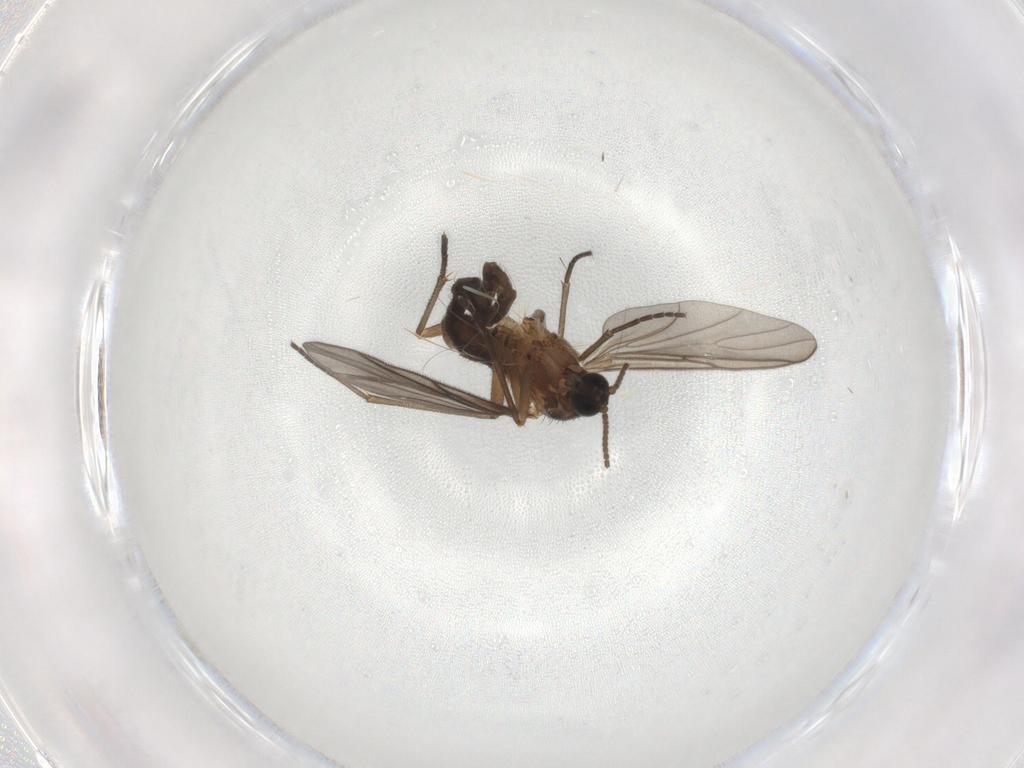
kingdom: Animalia
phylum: Arthropoda
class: Insecta
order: Diptera
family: Sciaridae
